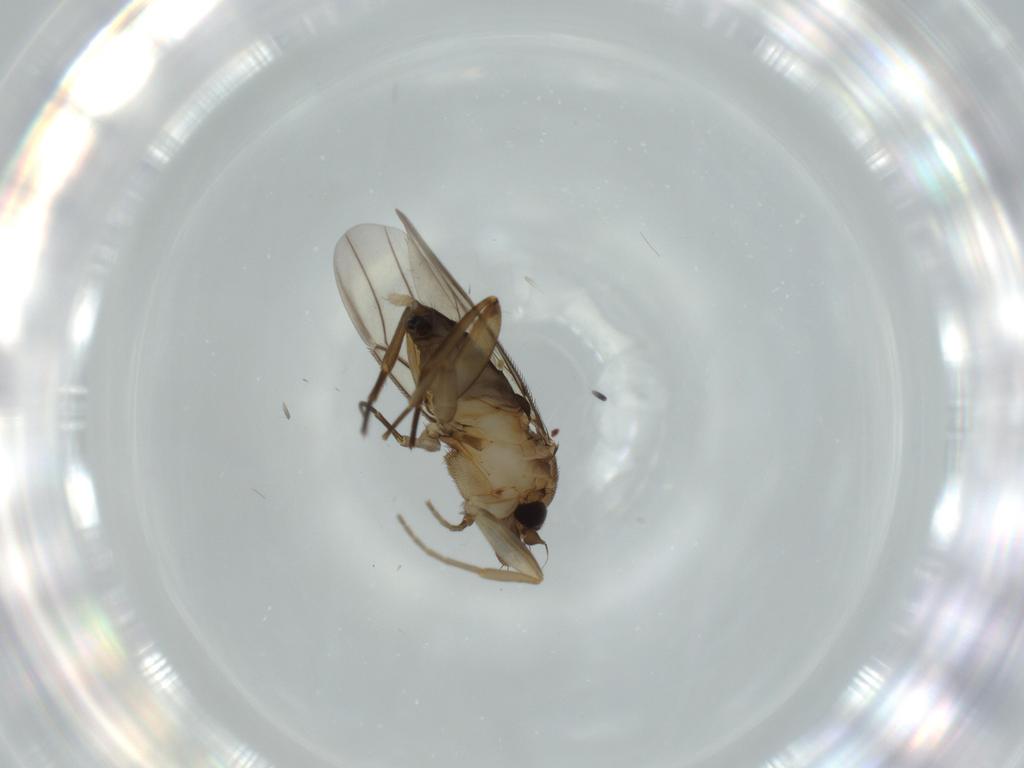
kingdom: Animalia
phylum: Arthropoda
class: Insecta
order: Diptera
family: Phoridae
